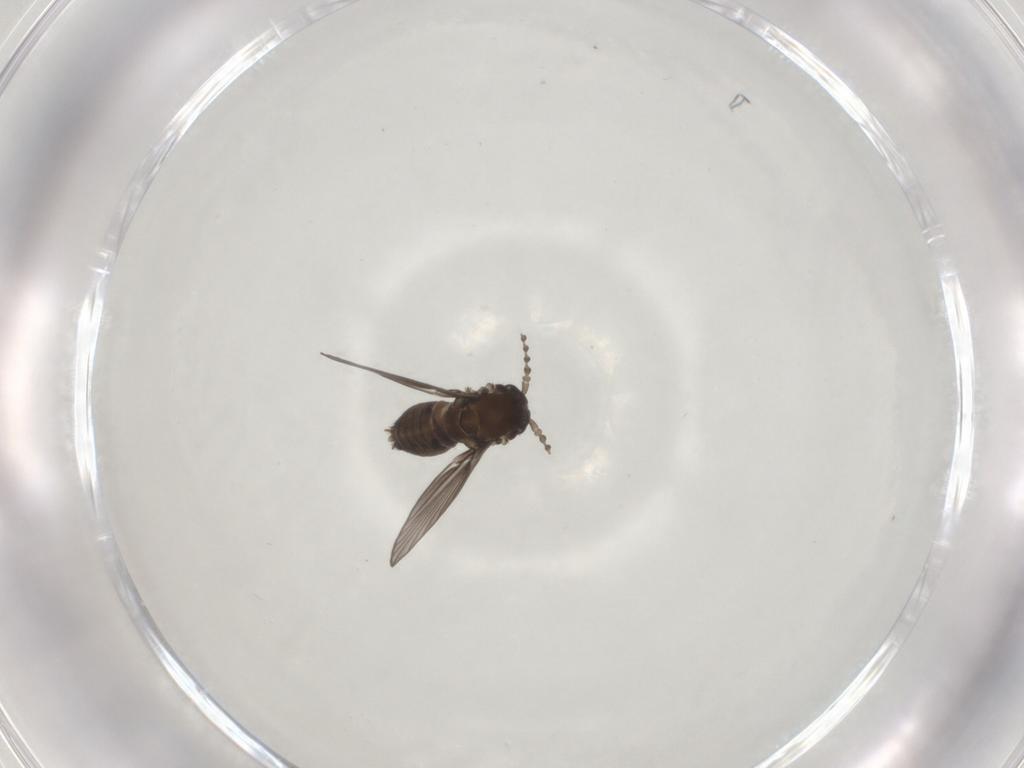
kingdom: Animalia
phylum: Arthropoda
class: Insecta
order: Diptera
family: Psychodidae
